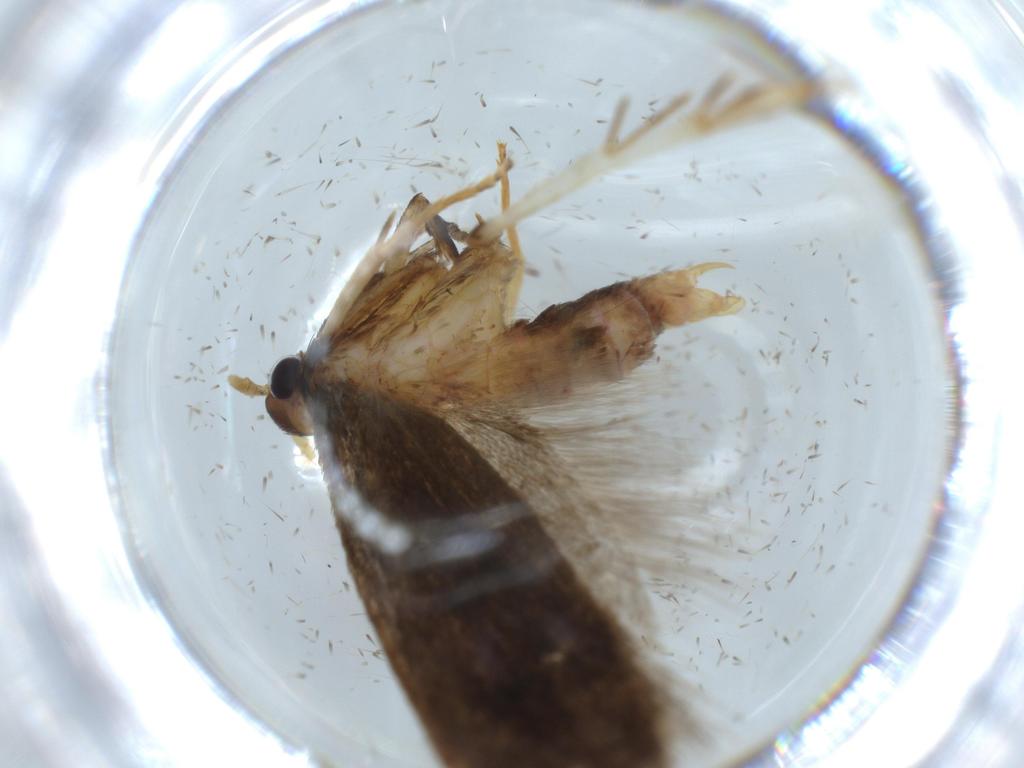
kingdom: Animalia
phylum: Arthropoda
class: Insecta
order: Lepidoptera
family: Lecithoceridae
